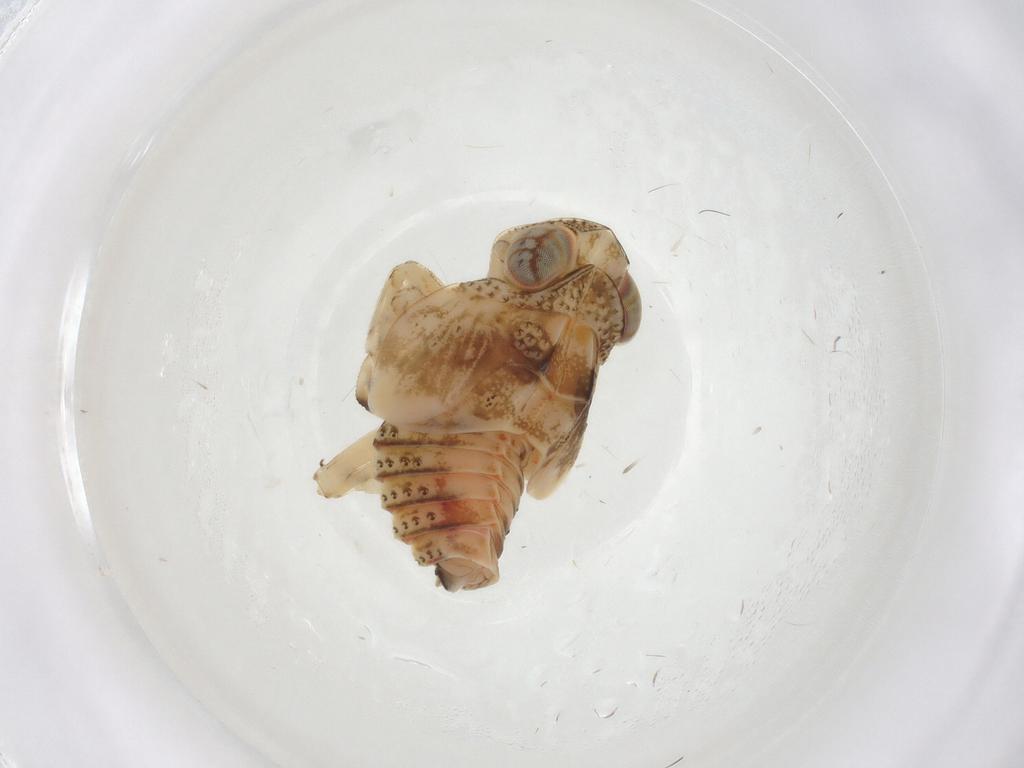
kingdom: Animalia
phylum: Arthropoda
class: Insecta
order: Hemiptera
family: Issidae
